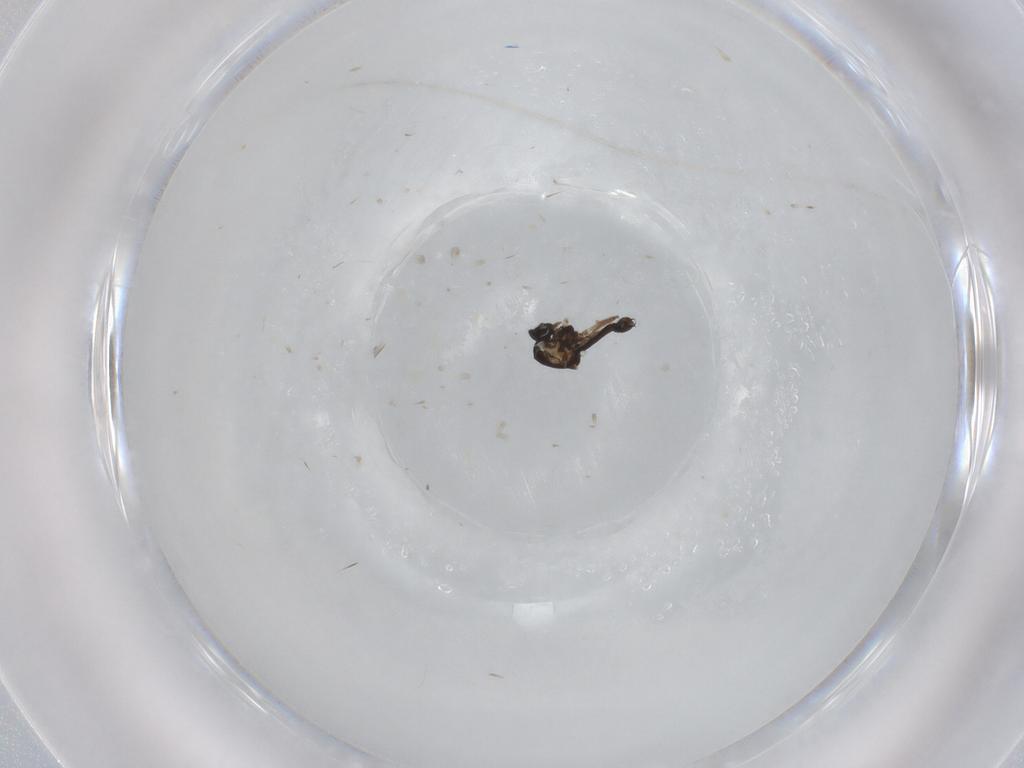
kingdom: Animalia
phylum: Arthropoda
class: Insecta
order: Diptera
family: Ceratopogonidae
